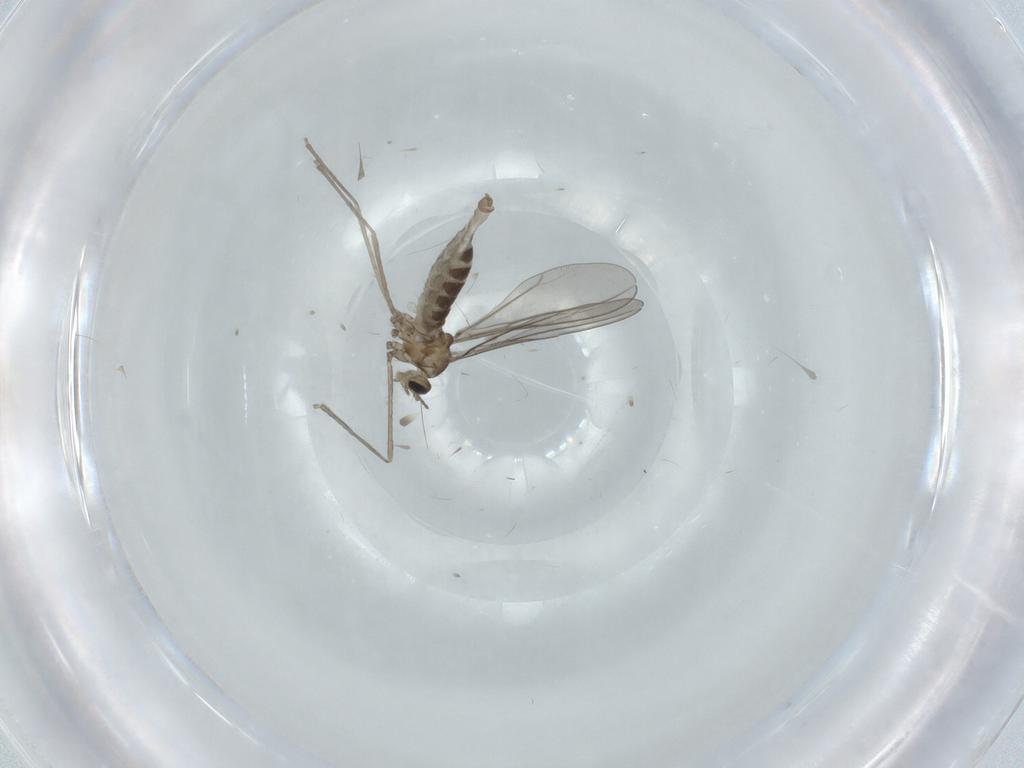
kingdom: Animalia
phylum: Arthropoda
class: Insecta
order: Diptera
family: Cecidomyiidae
